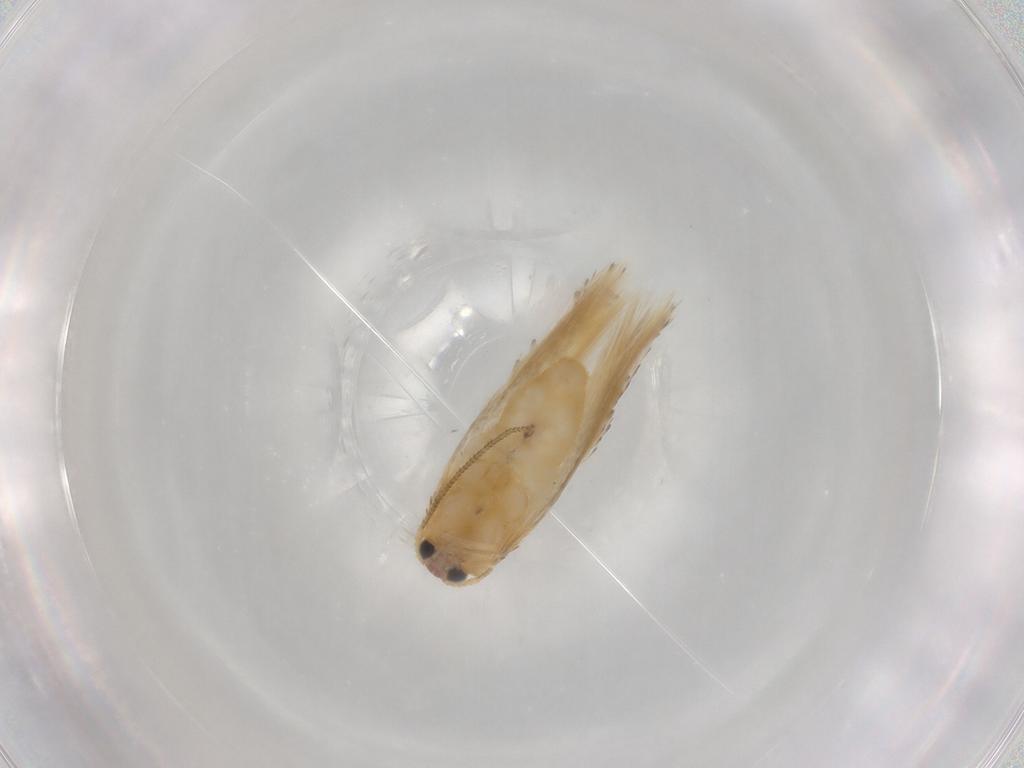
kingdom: Animalia
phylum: Arthropoda
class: Insecta
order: Lepidoptera
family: Nepticulidae
